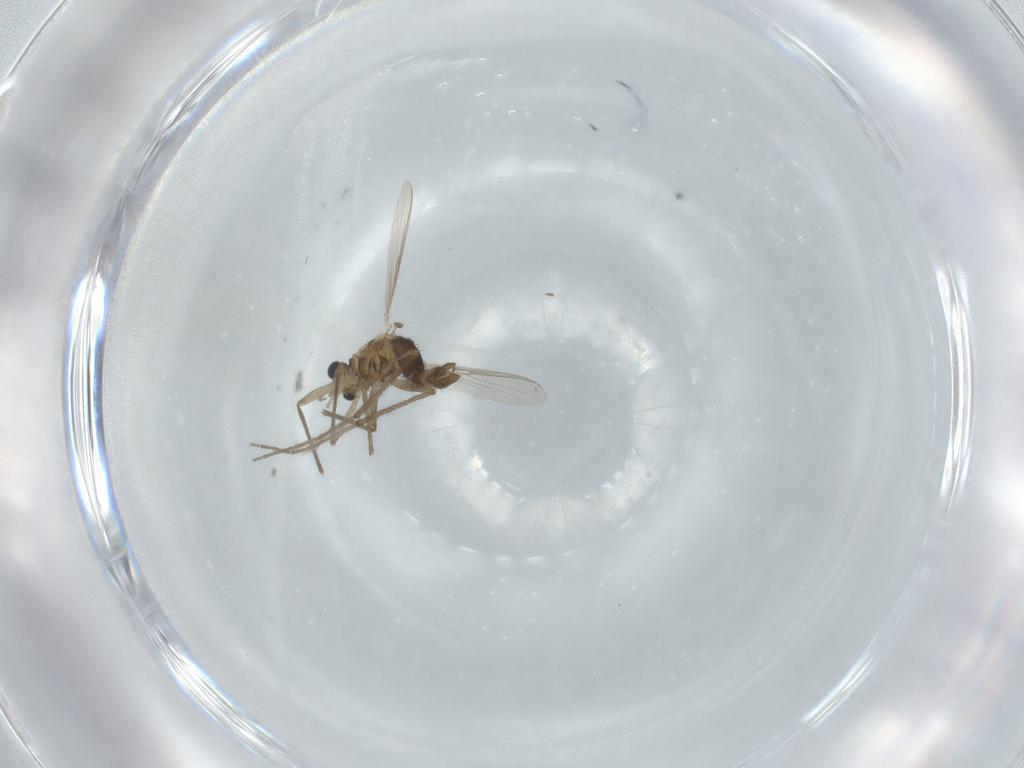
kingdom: Animalia
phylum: Arthropoda
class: Insecta
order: Diptera
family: Chironomidae
